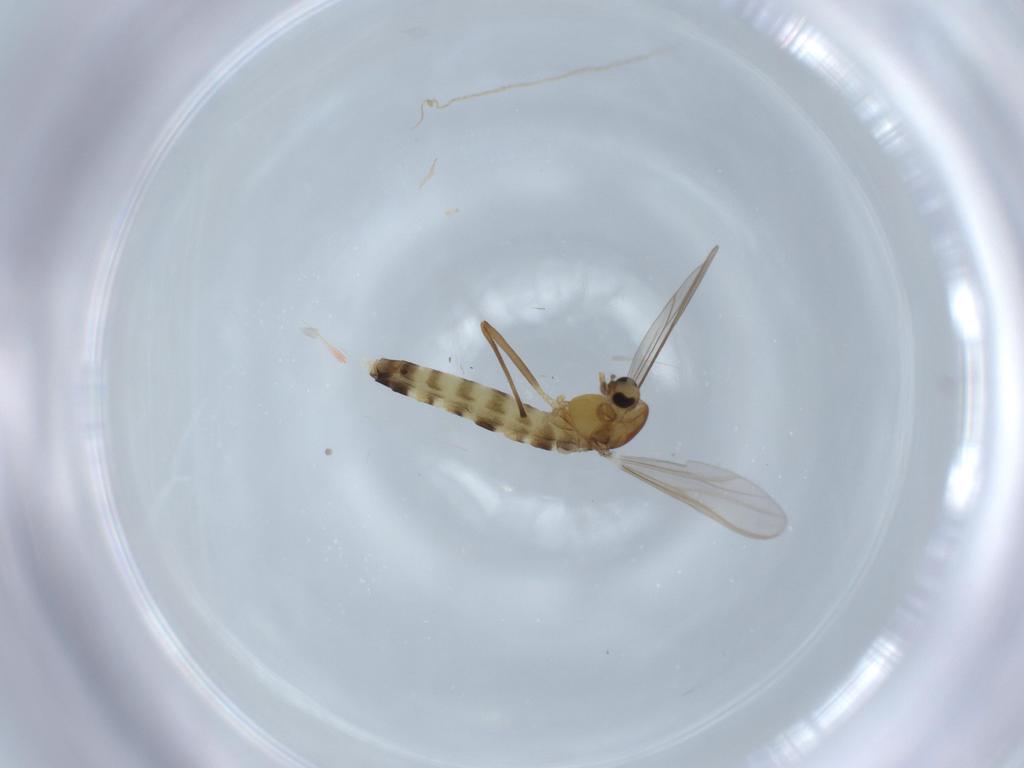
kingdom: Animalia
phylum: Arthropoda
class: Insecta
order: Diptera
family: Chironomidae
